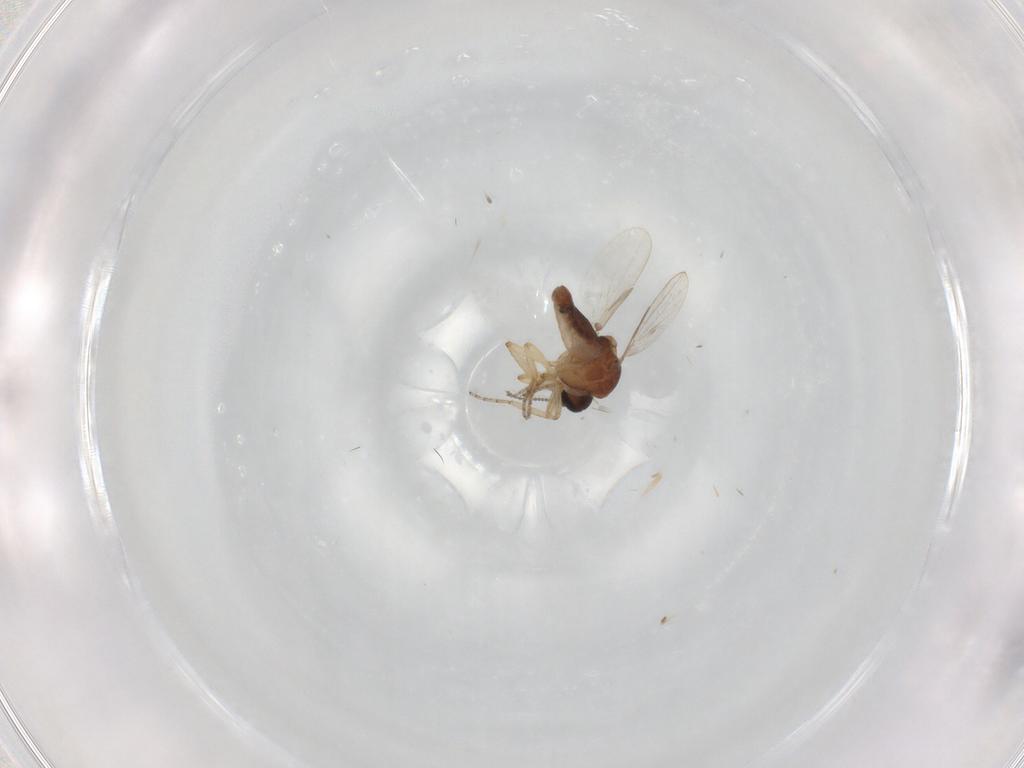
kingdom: Animalia
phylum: Arthropoda
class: Insecta
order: Diptera
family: Ceratopogonidae
